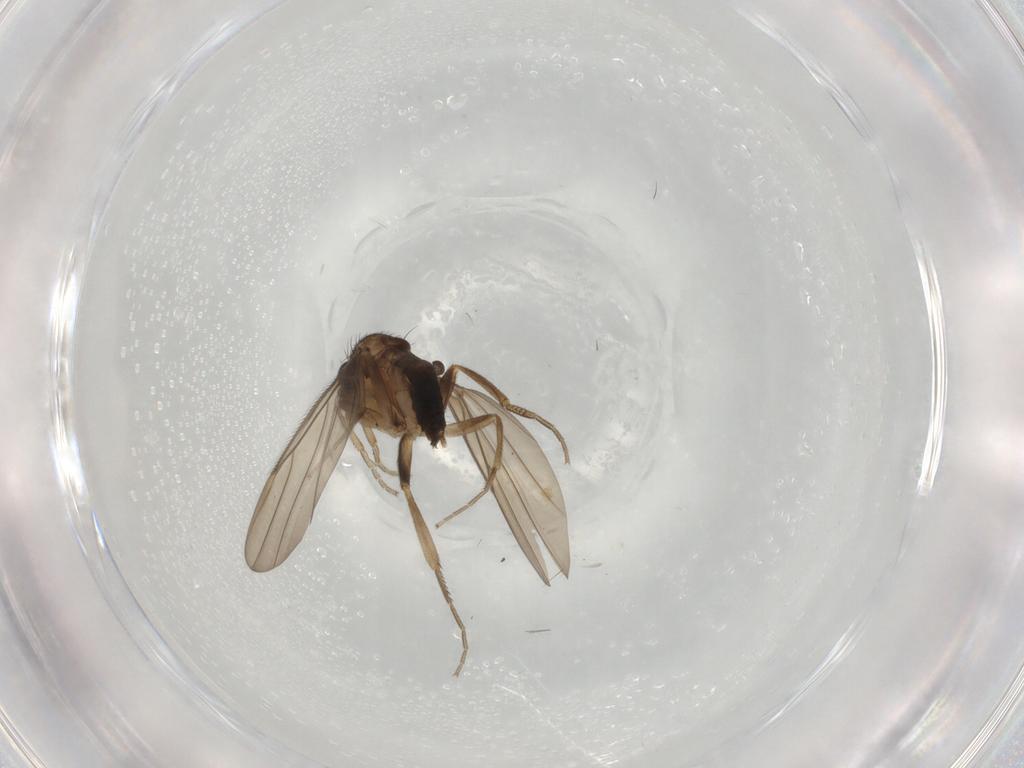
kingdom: Animalia
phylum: Arthropoda
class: Insecta
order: Diptera
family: Phoridae
